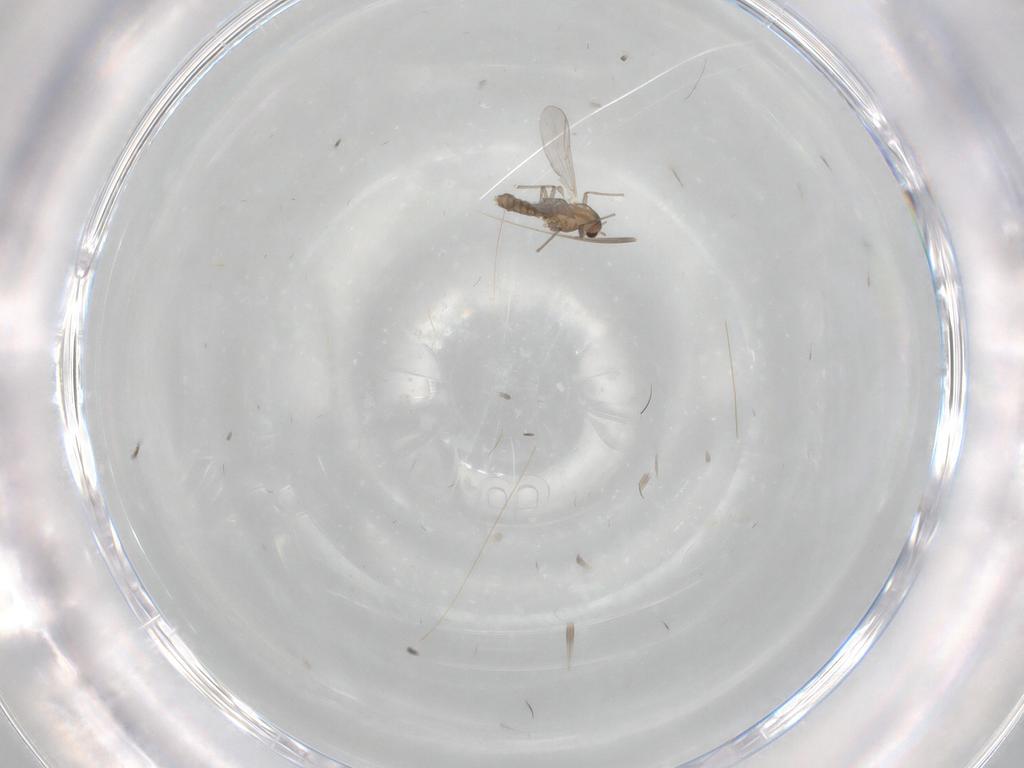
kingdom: Animalia
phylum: Arthropoda
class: Insecta
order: Diptera
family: Chironomidae
